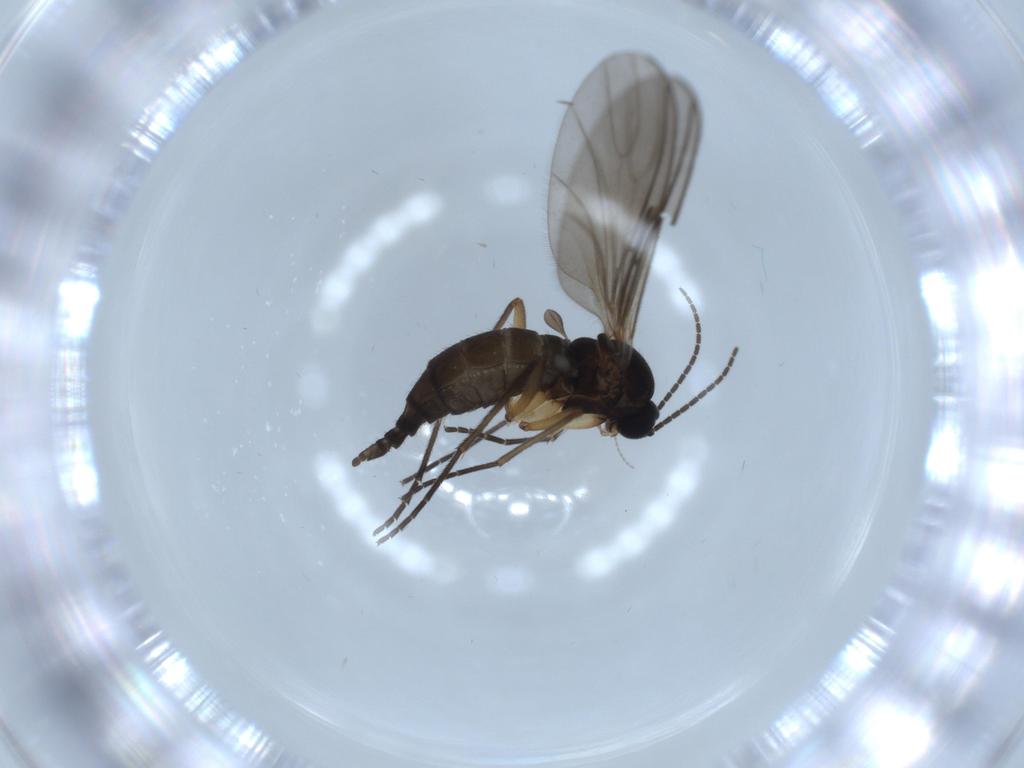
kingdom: Animalia
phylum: Arthropoda
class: Insecta
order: Diptera
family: Sciaridae
